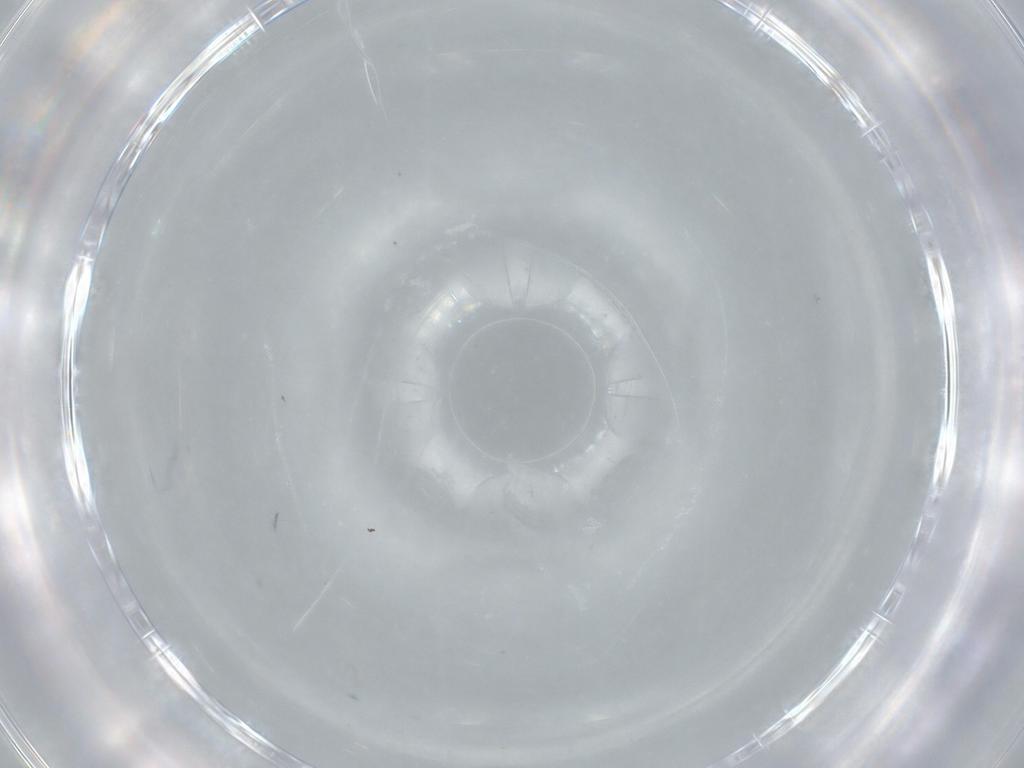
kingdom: Animalia
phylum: Arthropoda
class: Arachnida
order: Araneae
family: Anyphaenidae
